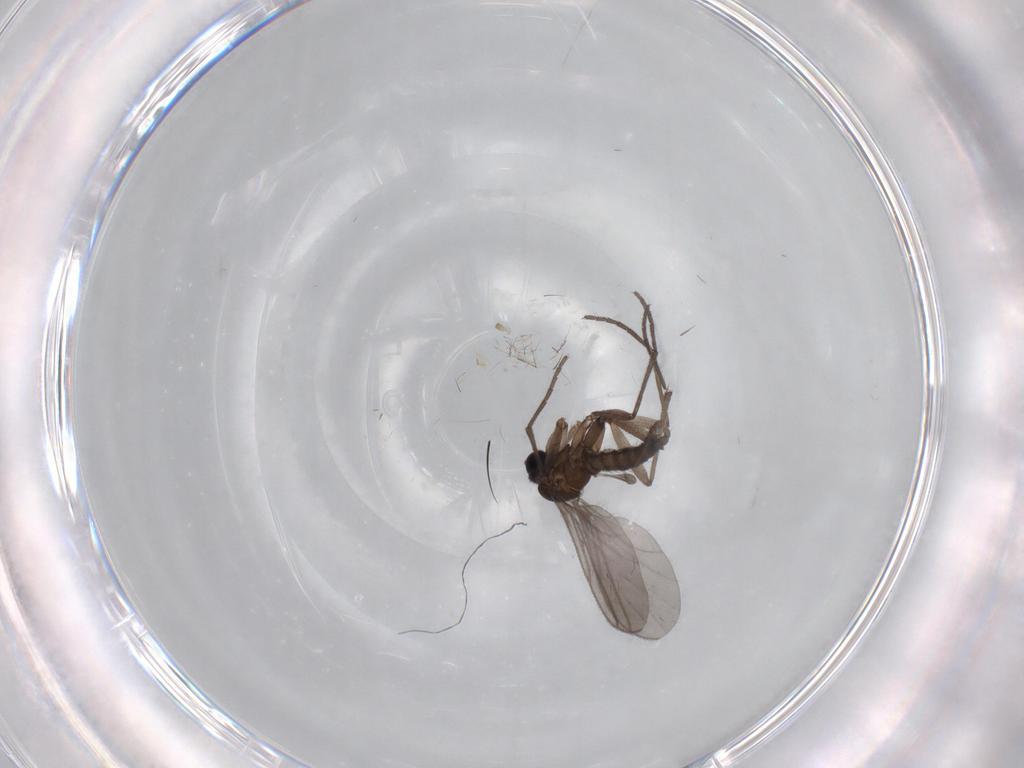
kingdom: Animalia
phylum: Arthropoda
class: Insecta
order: Diptera
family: Sciaridae
